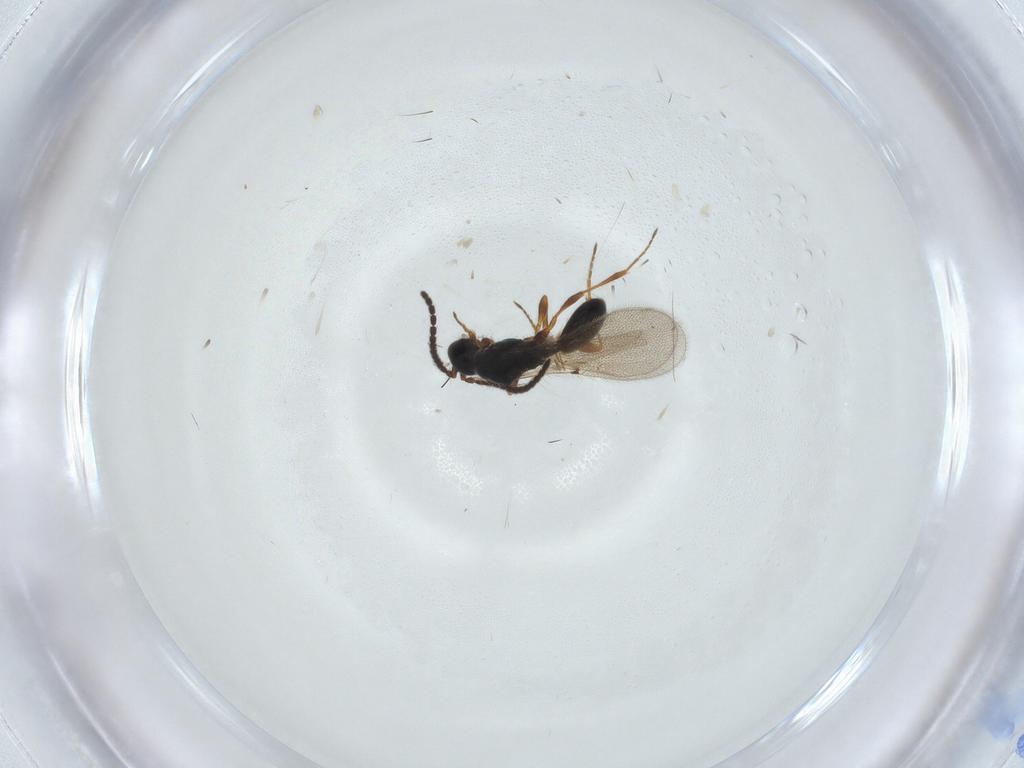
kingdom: Animalia
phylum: Arthropoda
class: Insecta
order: Hymenoptera
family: Diapriidae
